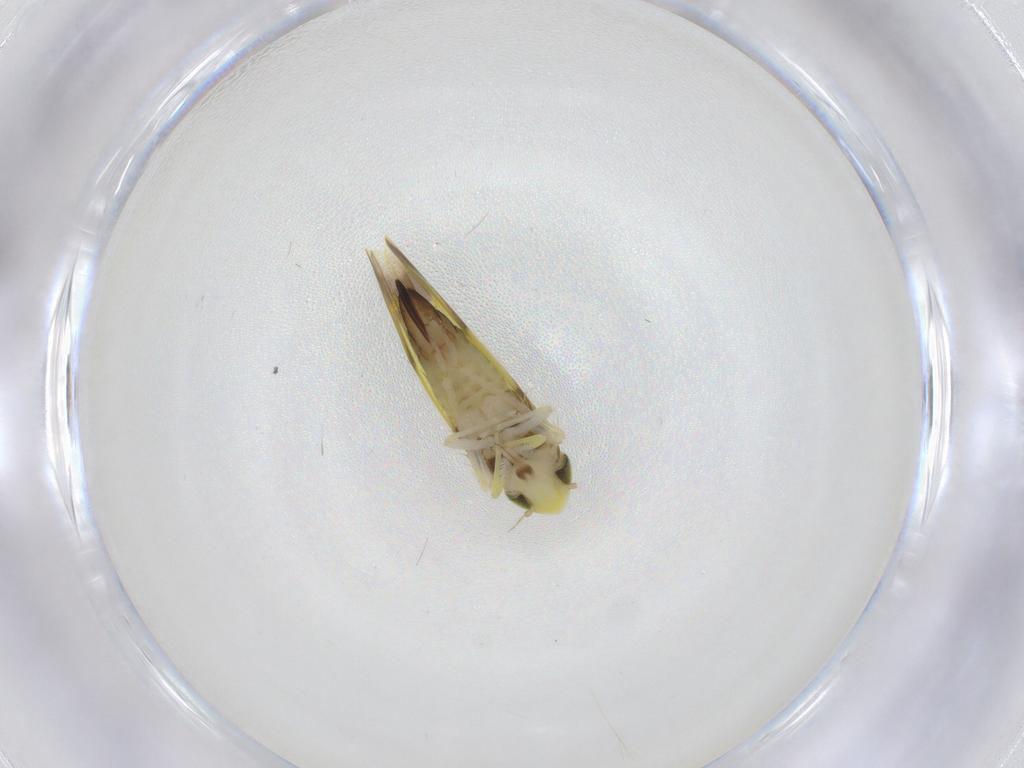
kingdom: Animalia
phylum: Arthropoda
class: Insecta
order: Hemiptera
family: Cicadellidae
